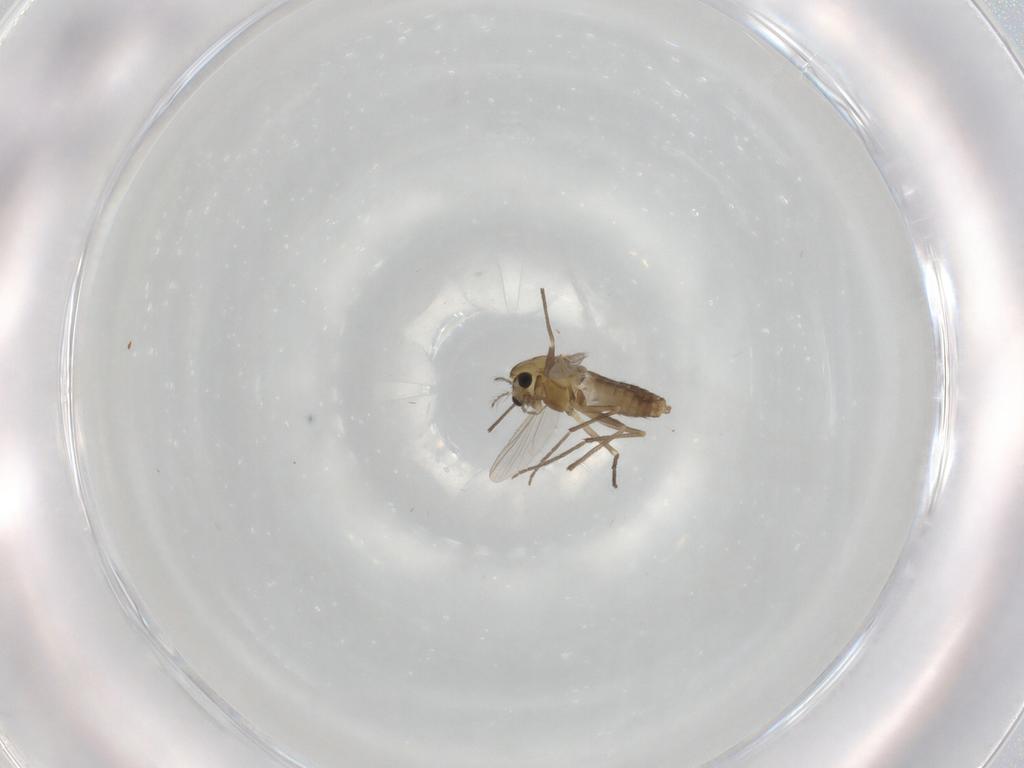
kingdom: Animalia
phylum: Arthropoda
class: Insecta
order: Diptera
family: Chironomidae
